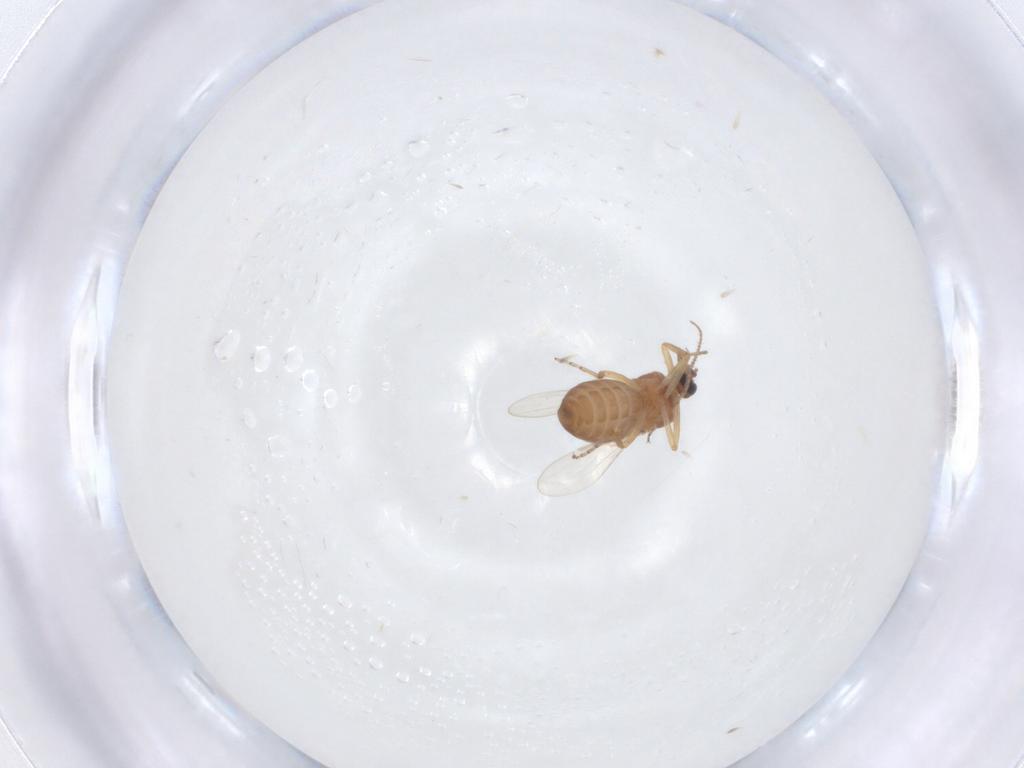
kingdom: Animalia
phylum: Arthropoda
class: Insecta
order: Diptera
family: Ceratopogonidae
